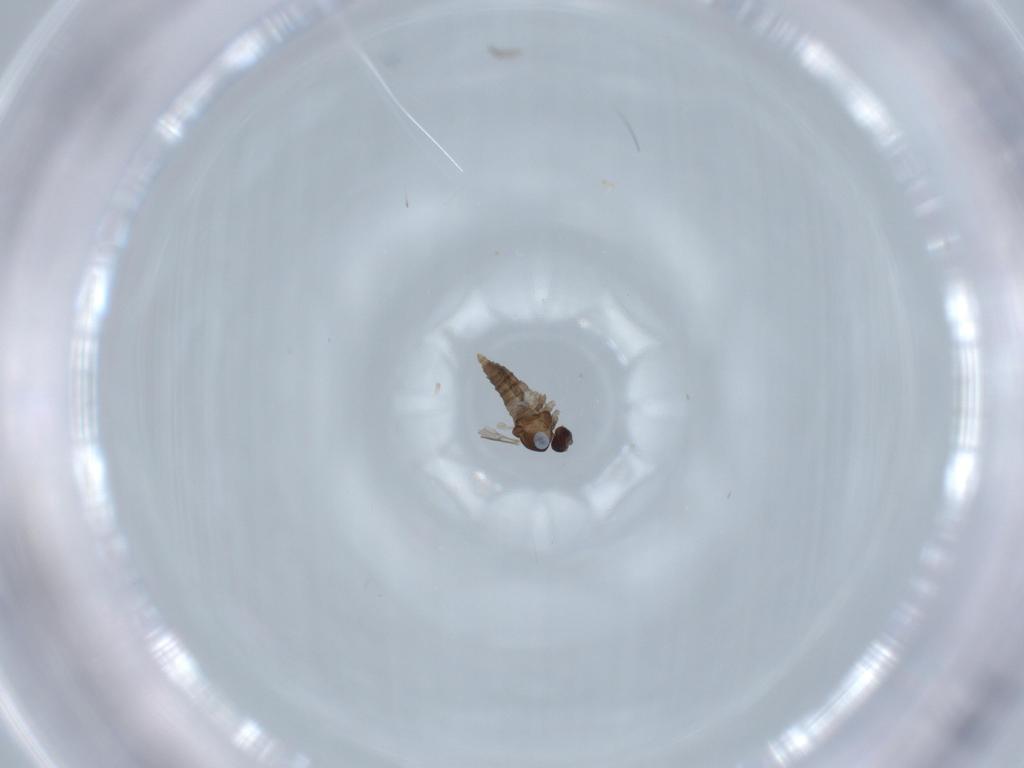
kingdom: Animalia
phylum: Arthropoda
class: Insecta
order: Diptera
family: Cecidomyiidae
